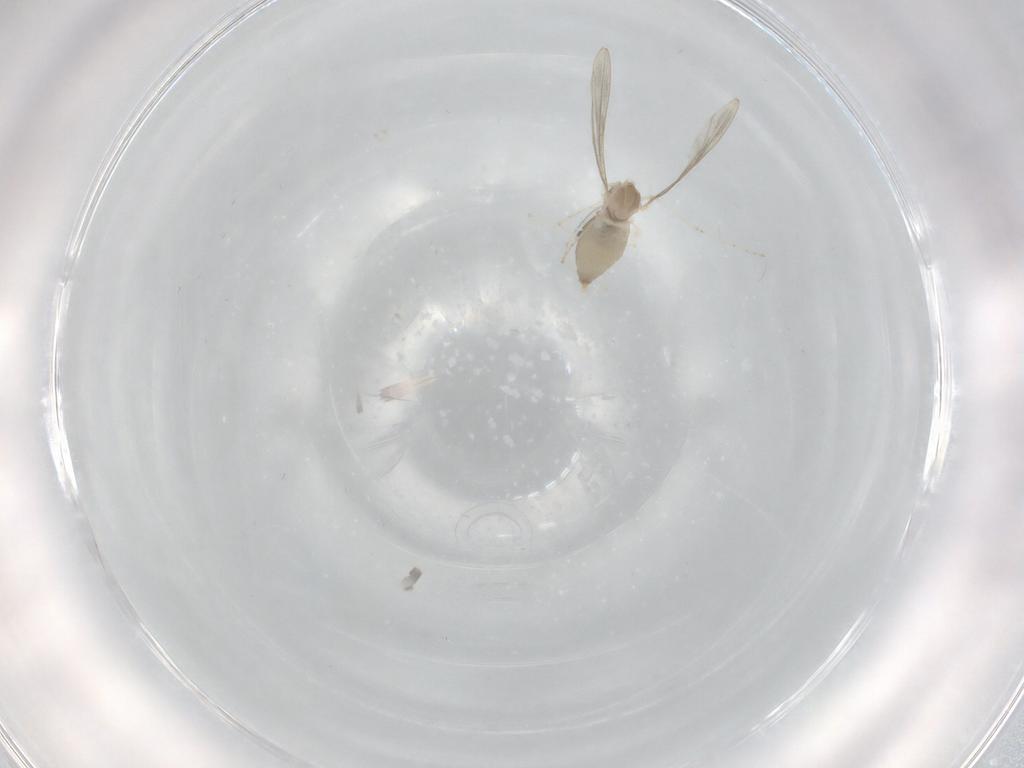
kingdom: Animalia
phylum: Arthropoda
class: Insecta
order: Diptera
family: Cecidomyiidae
